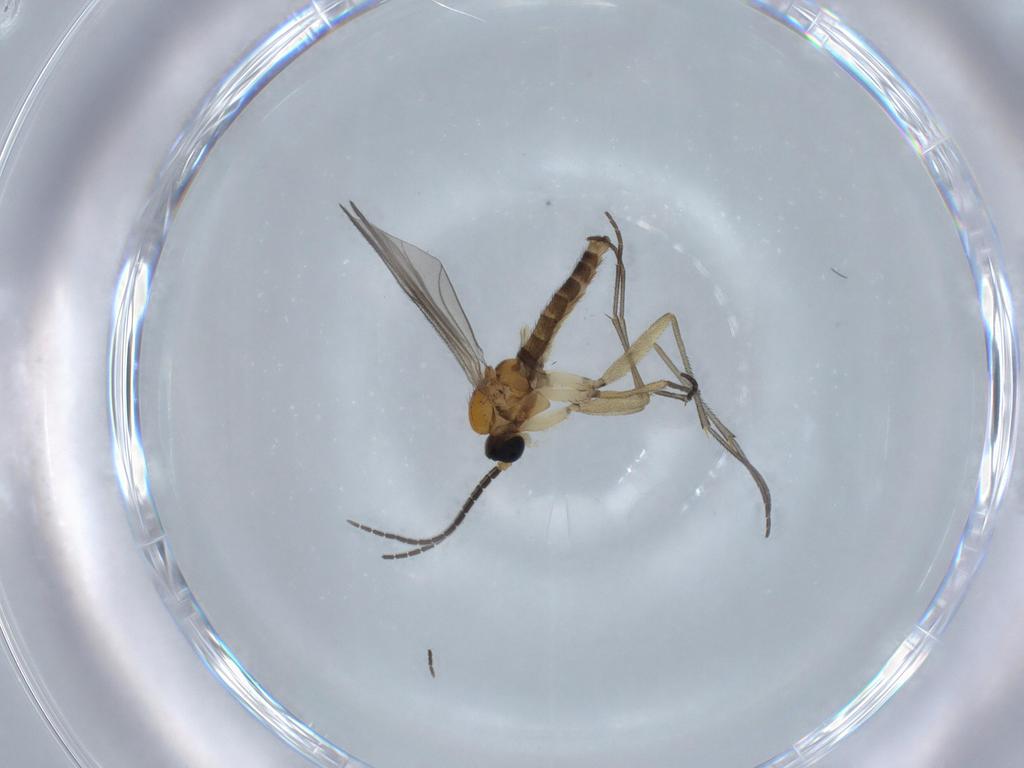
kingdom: Animalia
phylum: Arthropoda
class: Insecta
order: Diptera
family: Sciaridae
